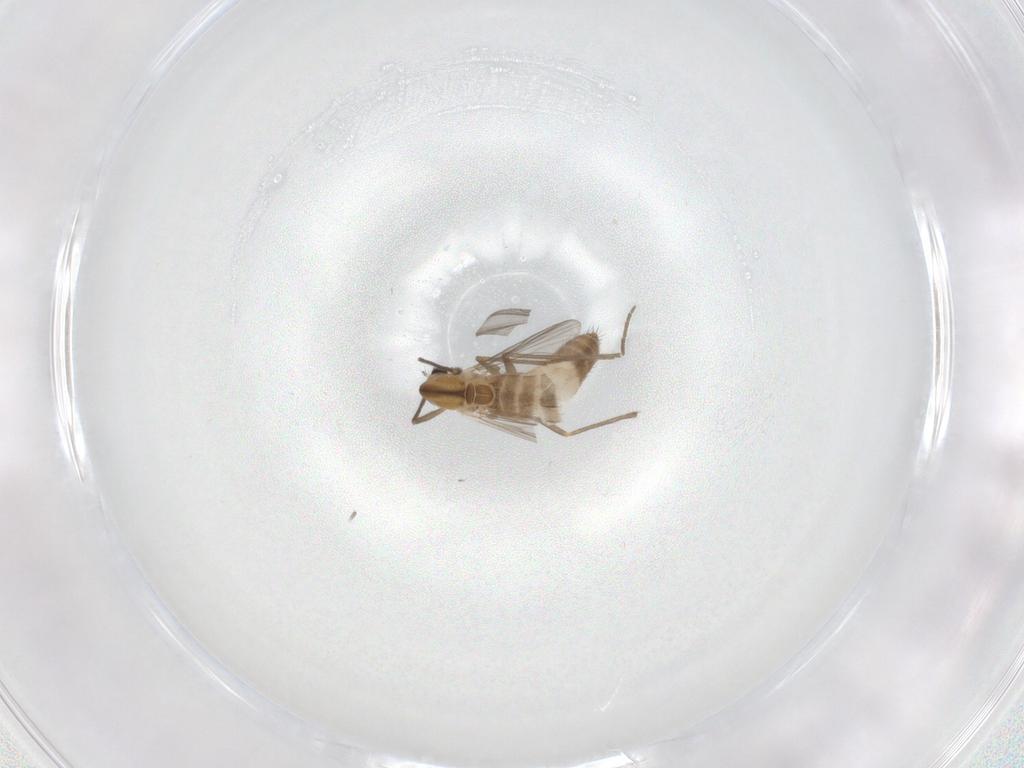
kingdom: Animalia
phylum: Arthropoda
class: Insecta
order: Diptera
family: Chironomidae
